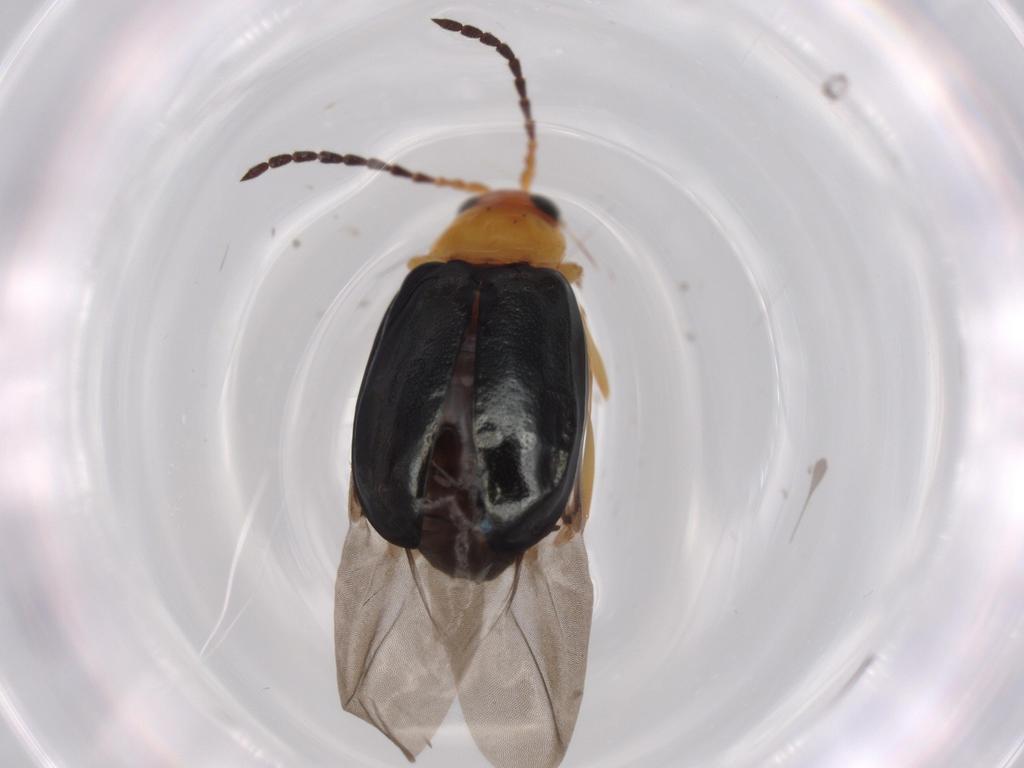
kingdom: Animalia
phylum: Arthropoda
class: Insecta
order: Coleoptera
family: Chrysomelidae
